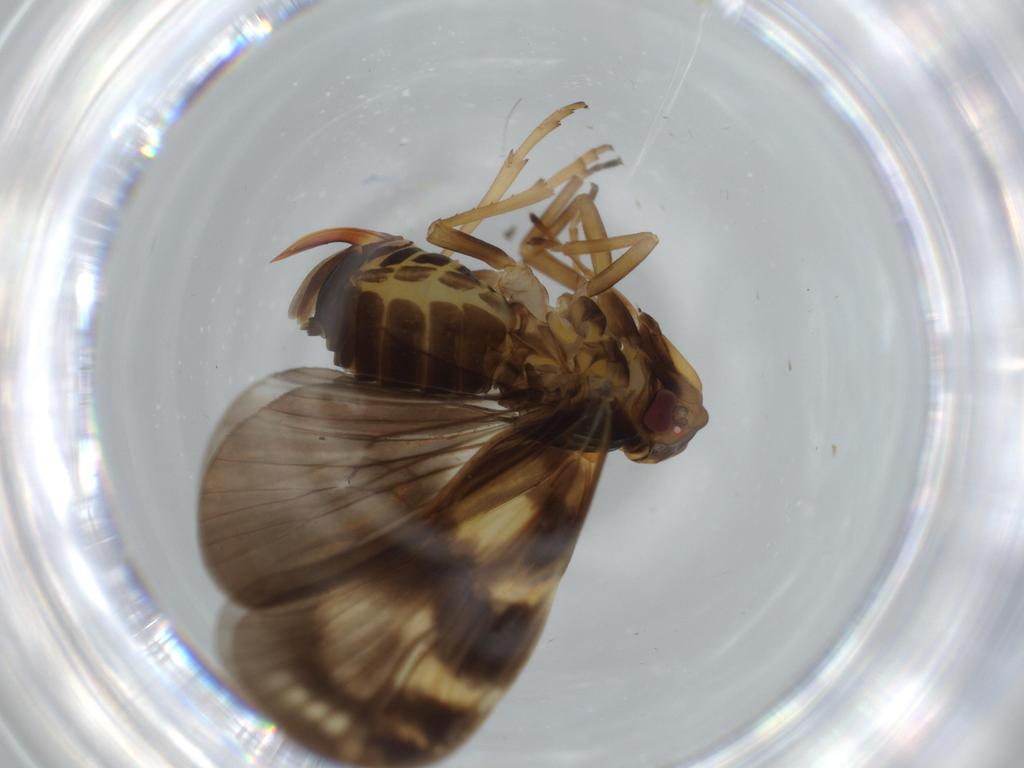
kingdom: Animalia
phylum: Arthropoda
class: Insecta
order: Hemiptera
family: Cixiidae
